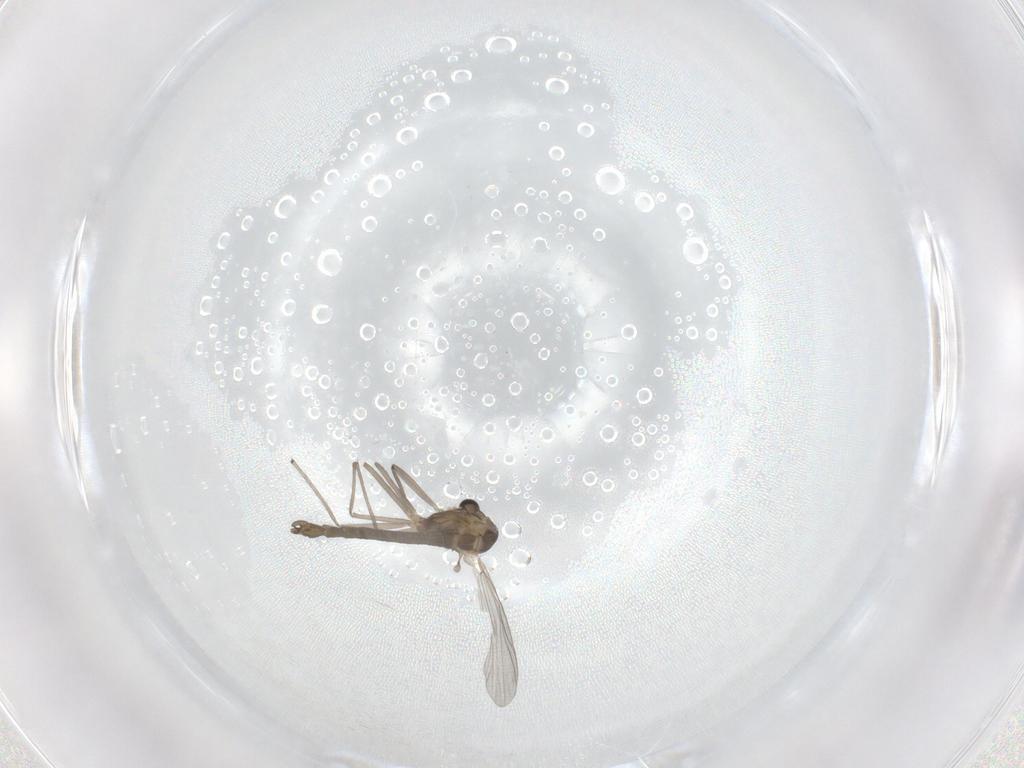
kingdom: Animalia
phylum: Arthropoda
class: Insecta
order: Diptera
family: Chironomidae
